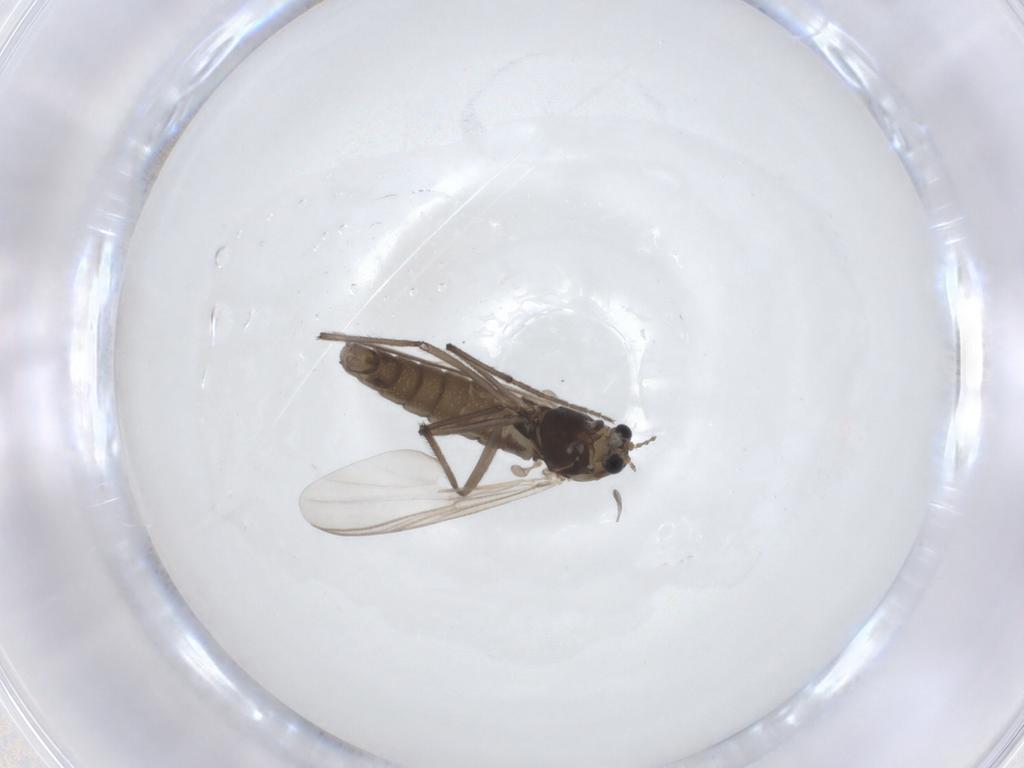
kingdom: Animalia
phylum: Arthropoda
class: Insecta
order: Diptera
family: Chironomidae
